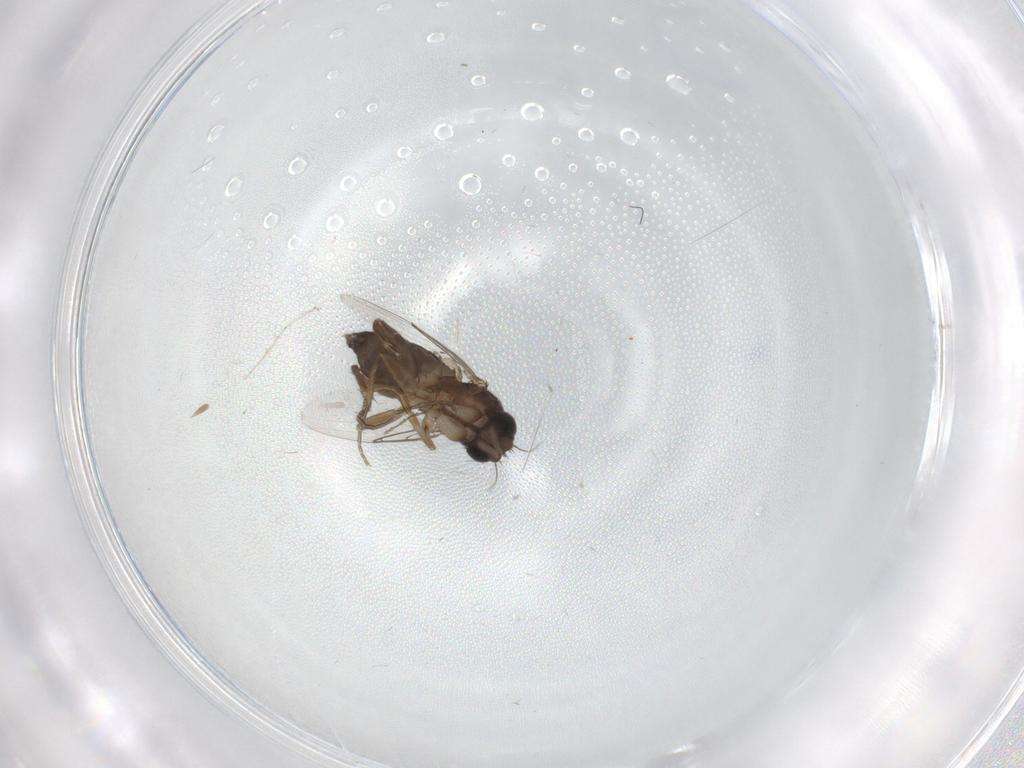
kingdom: Animalia
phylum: Arthropoda
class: Insecta
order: Diptera
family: Phoridae
